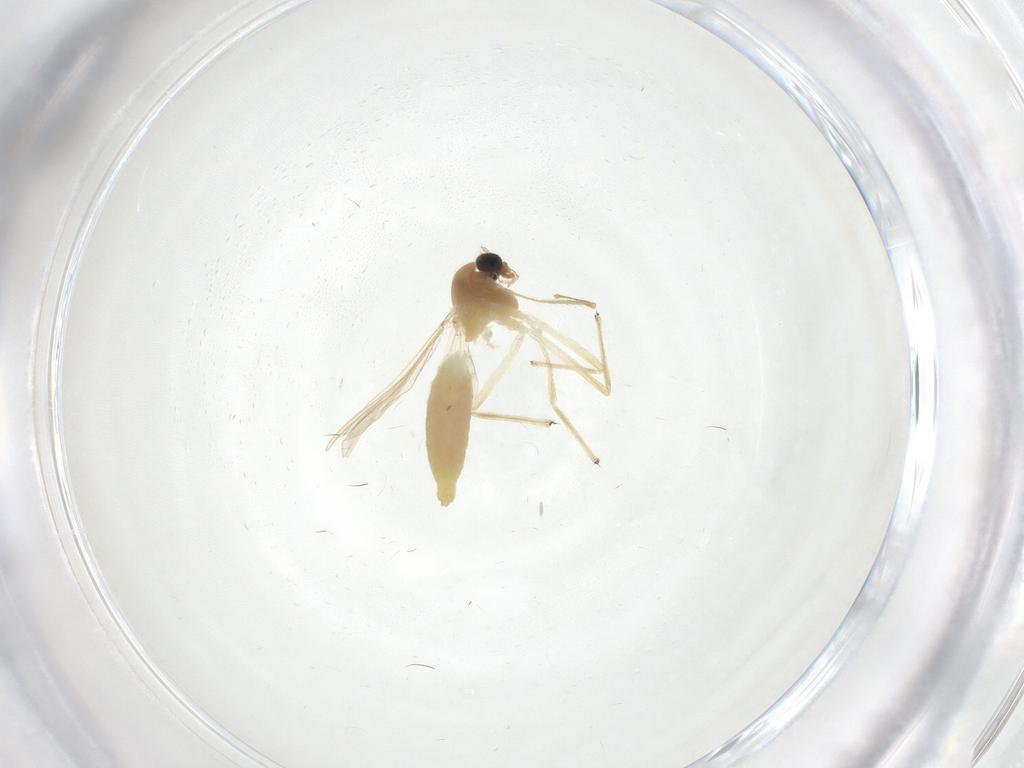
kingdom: Animalia
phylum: Arthropoda
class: Insecta
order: Diptera
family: Chironomidae
